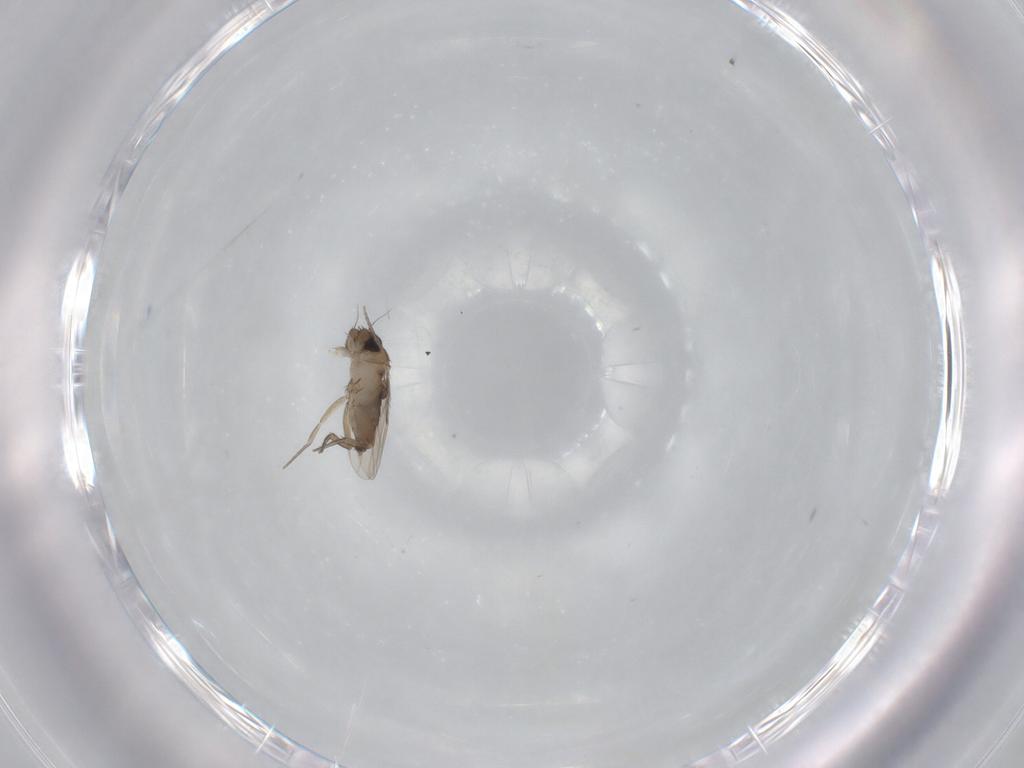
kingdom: Animalia
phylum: Arthropoda
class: Insecta
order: Diptera
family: Phoridae
